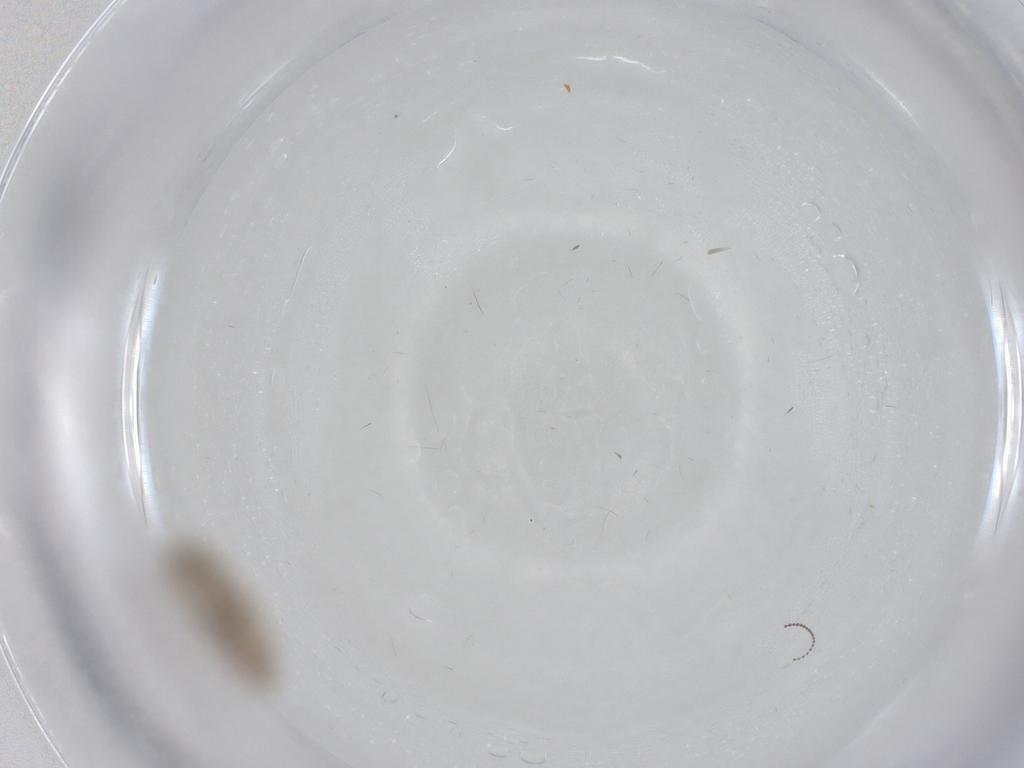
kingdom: Animalia
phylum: Arthropoda
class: Insecta
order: Diptera
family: Psychodidae
